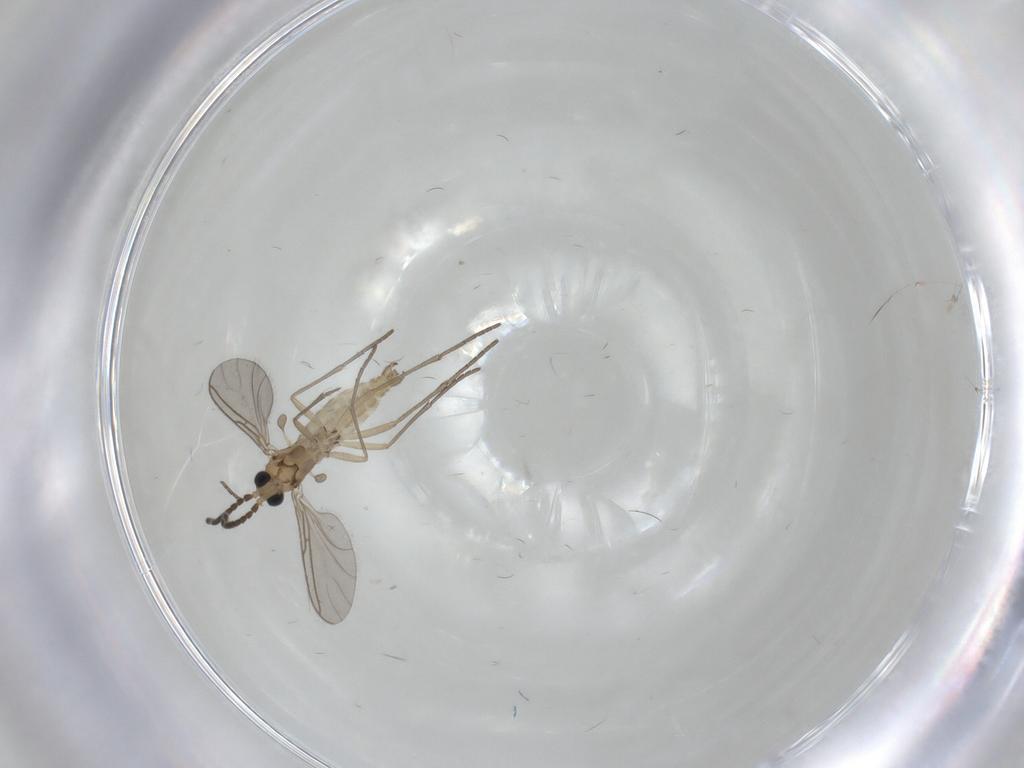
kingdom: Animalia
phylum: Arthropoda
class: Insecta
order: Diptera
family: Sciaridae
